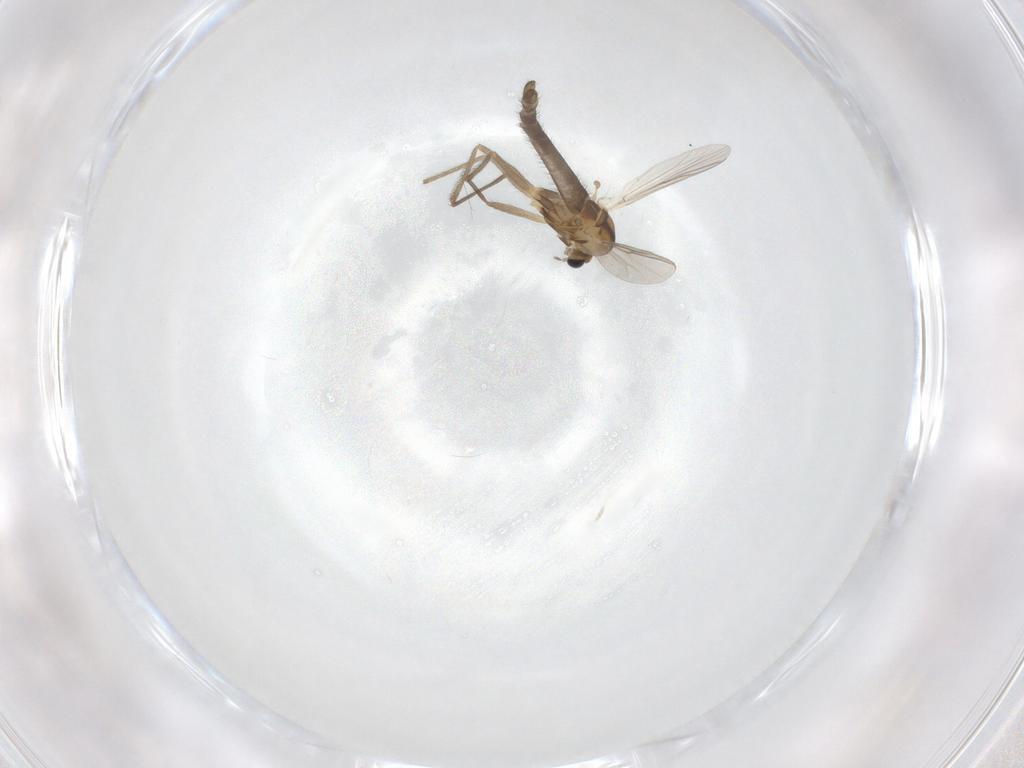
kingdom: Animalia
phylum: Arthropoda
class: Insecta
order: Diptera
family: Chironomidae
